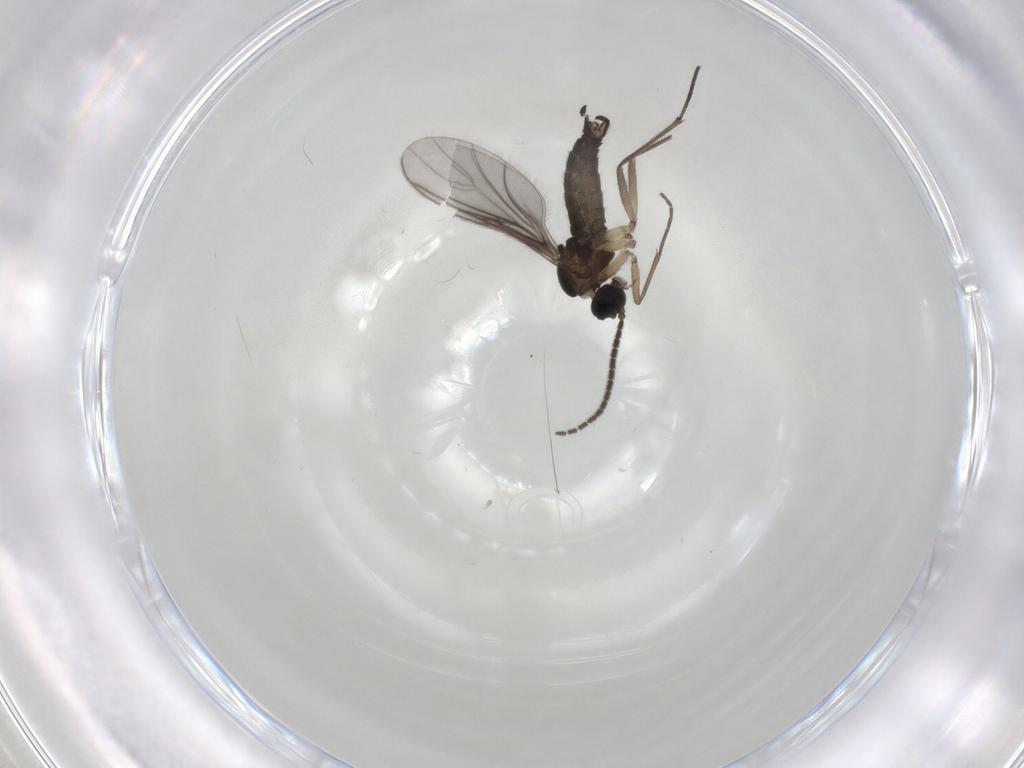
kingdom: Animalia
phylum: Arthropoda
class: Insecta
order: Diptera
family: Sciaridae
